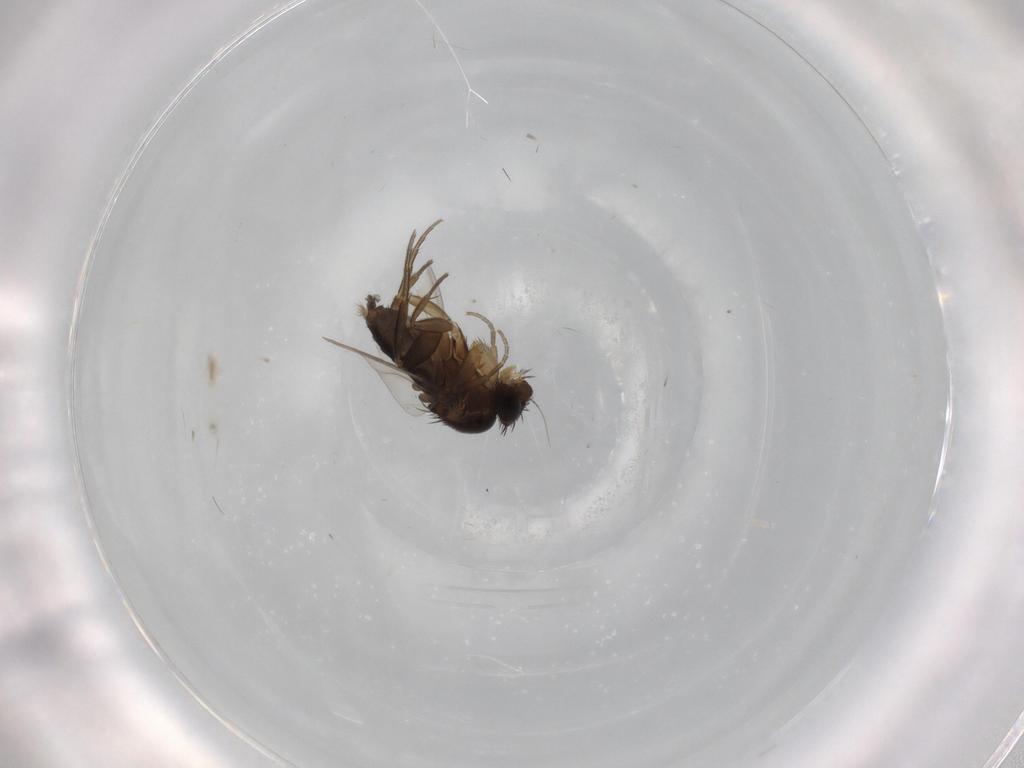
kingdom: Animalia
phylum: Arthropoda
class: Insecta
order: Diptera
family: Phoridae
